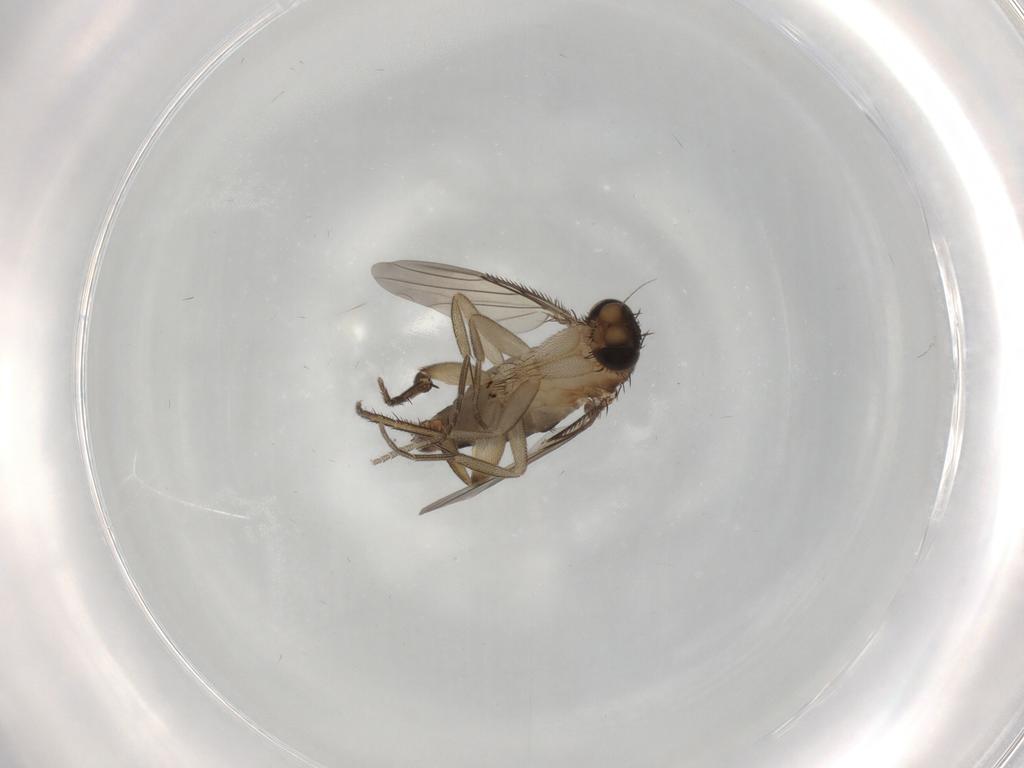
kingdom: Animalia
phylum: Arthropoda
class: Insecta
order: Diptera
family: Phoridae
